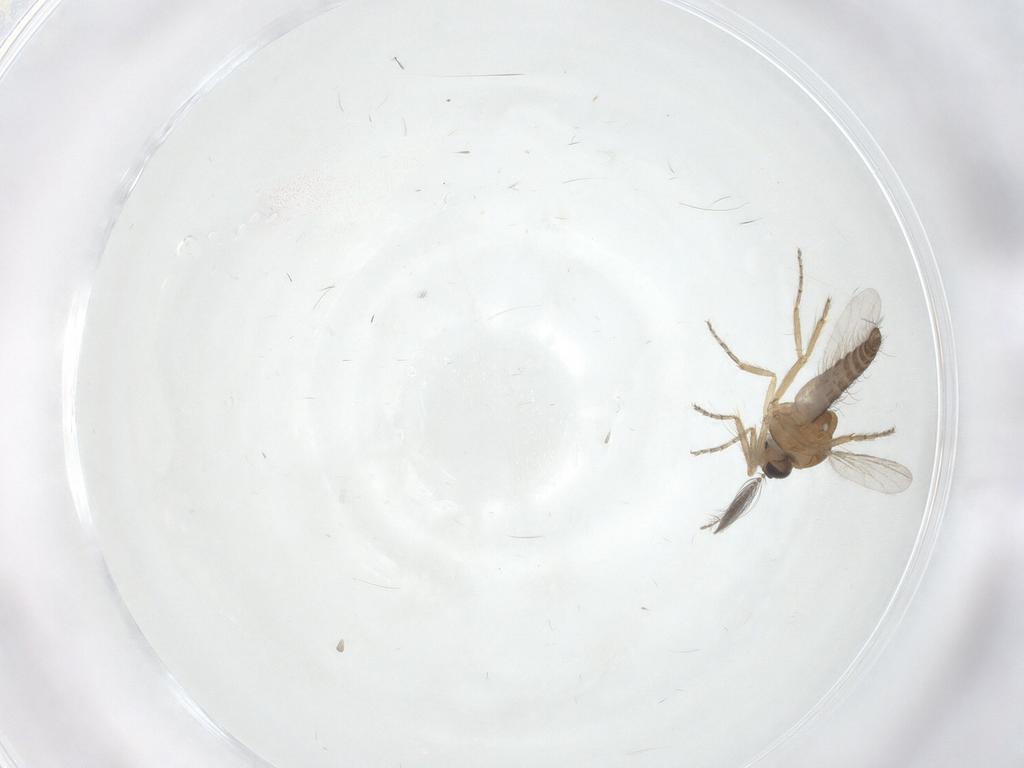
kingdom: Animalia
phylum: Arthropoda
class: Insecta
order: Diptera
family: Ceratopogonidae
